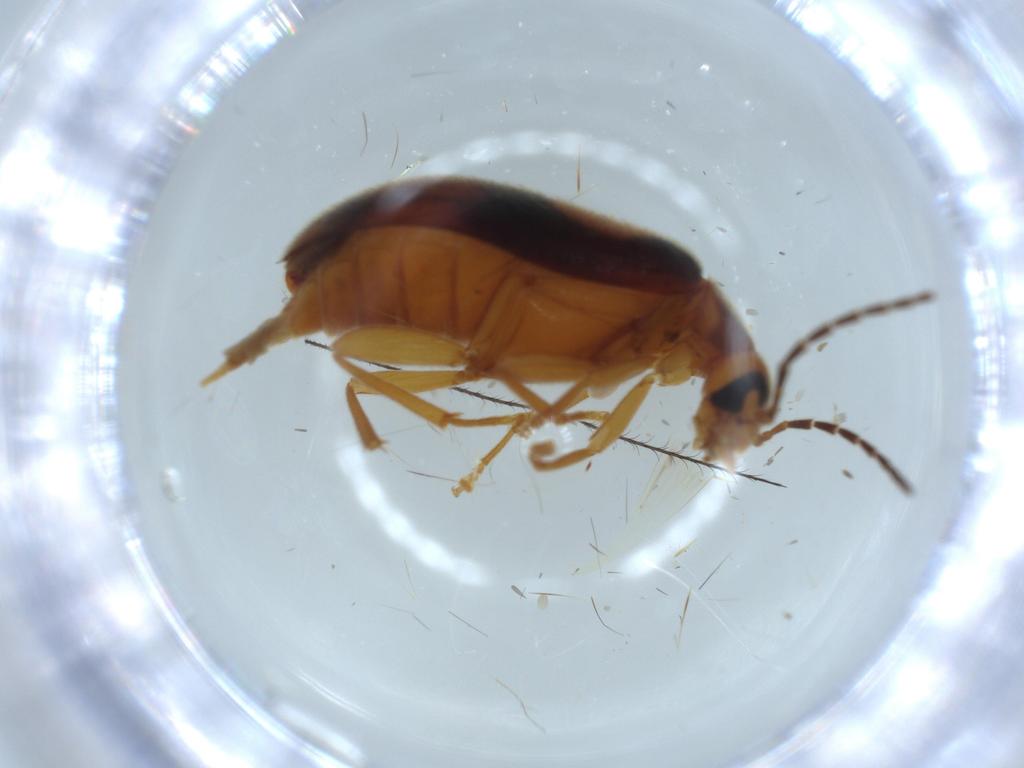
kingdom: Animalia
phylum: Arthropoda
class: Insecta
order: Coleoptera
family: Curculionidae
